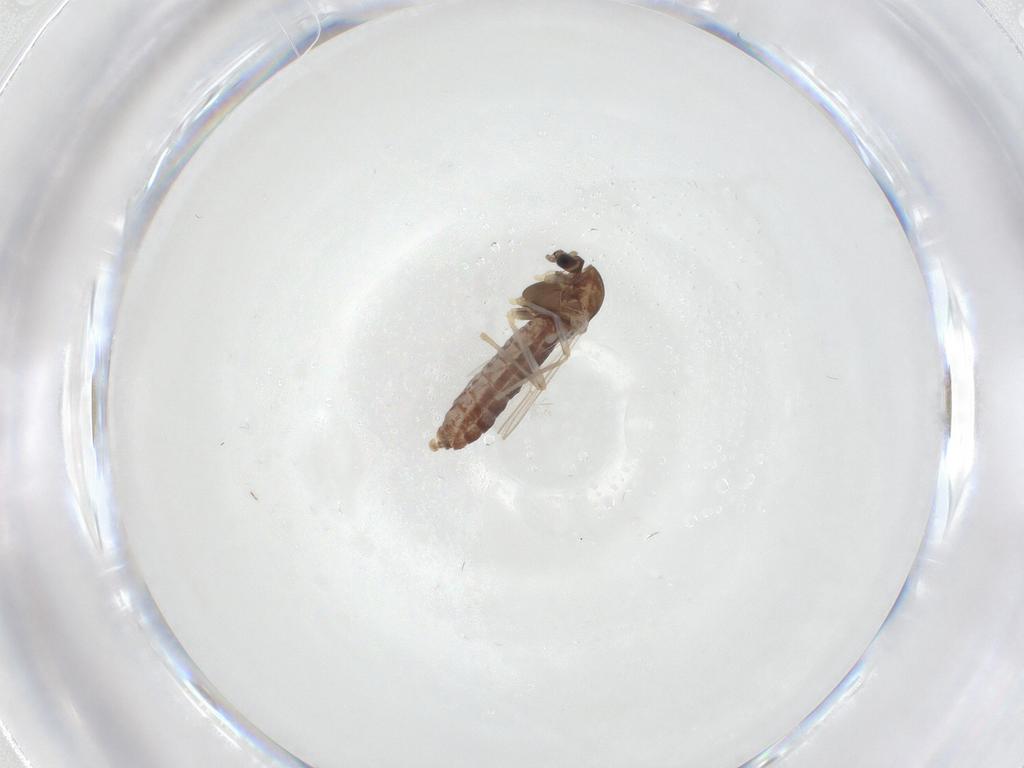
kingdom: Animalia
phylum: Arthropoda
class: Insecta
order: Diptera
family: Chironomidae
